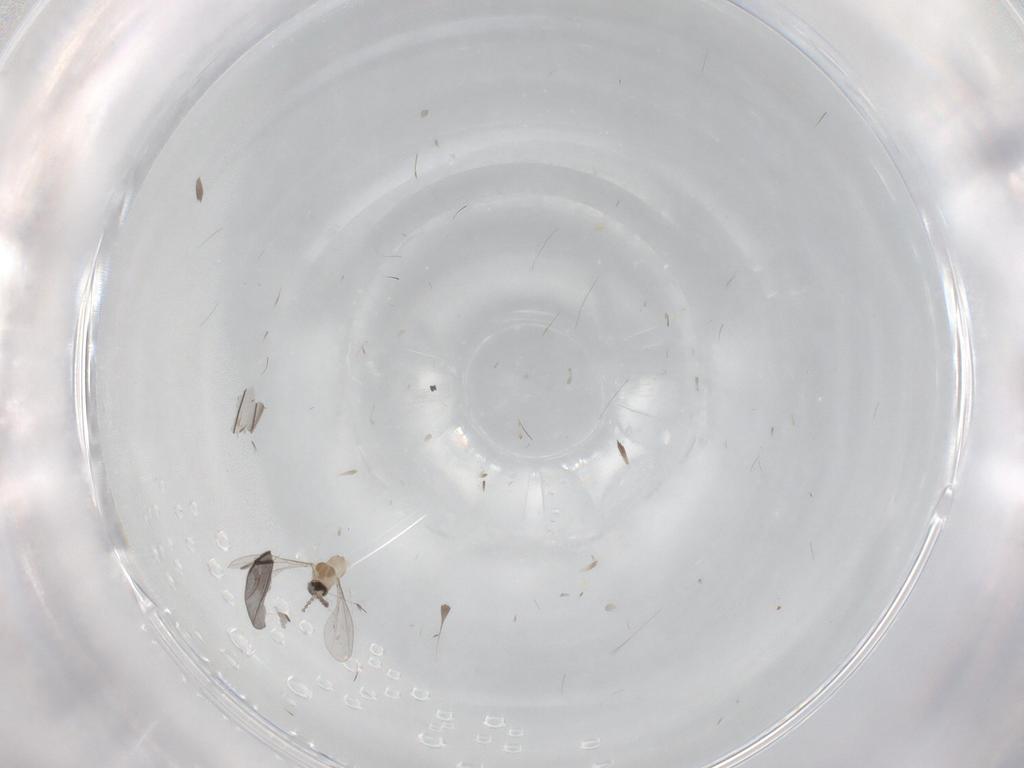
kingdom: Animalia
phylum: Arthropoda
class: Insecta
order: Diptera
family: Cecidomyiidae
